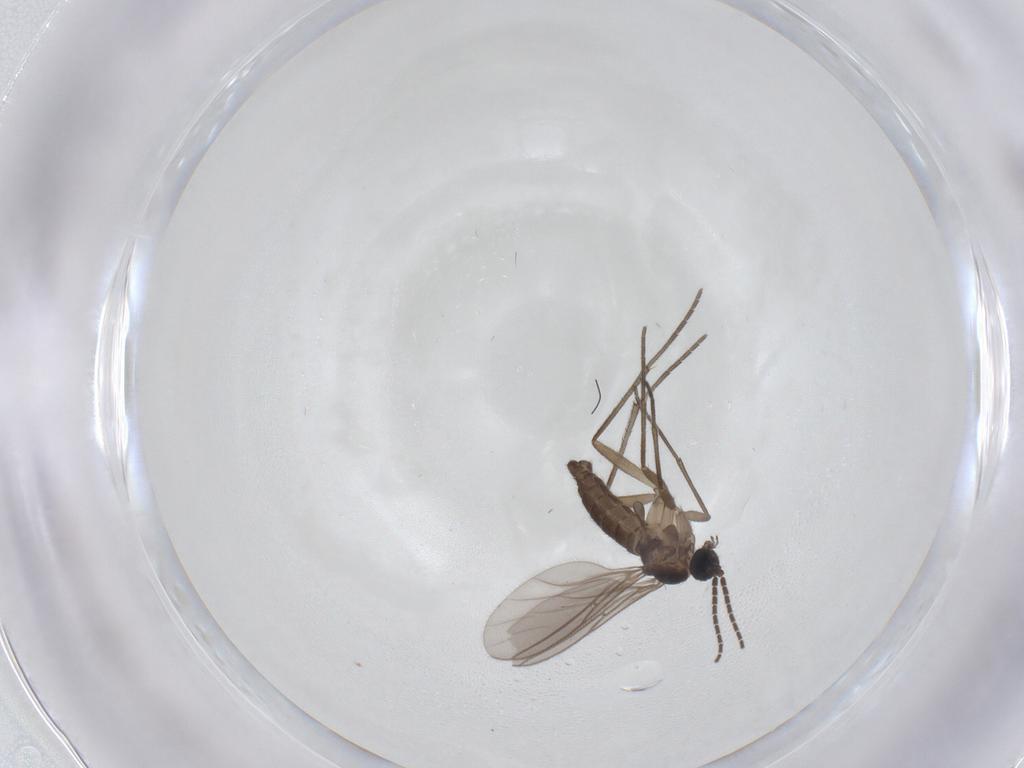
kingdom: Animalia
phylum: Arthropoda
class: Insecta
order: Diptera
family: Sciaridae
